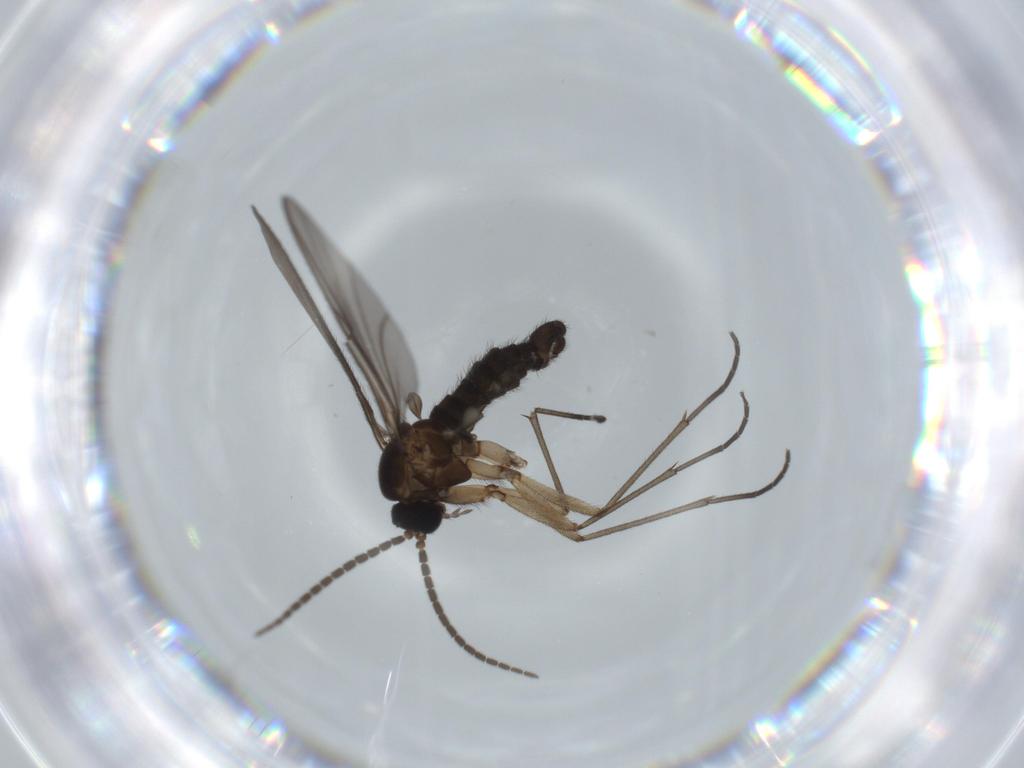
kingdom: Animalia
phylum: Arthropoda
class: Insecta
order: Diptera
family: Sciaridae
